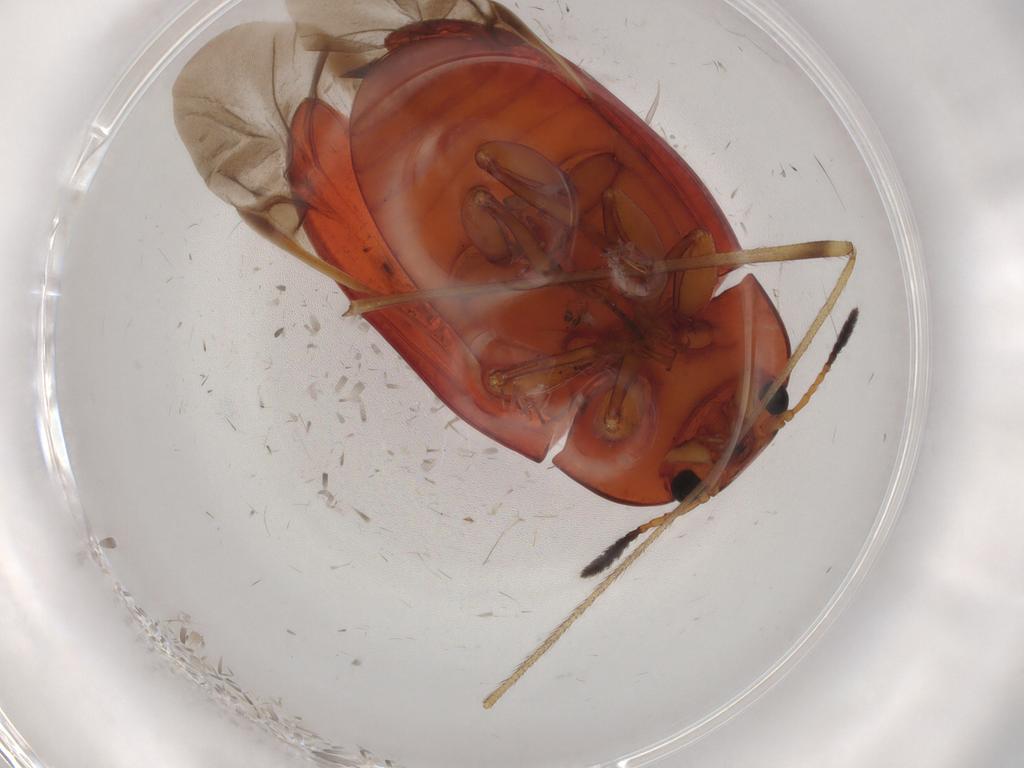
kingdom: Animalia
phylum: Arthropoda
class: Insecta
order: Coleoptera
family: Erotylidae
